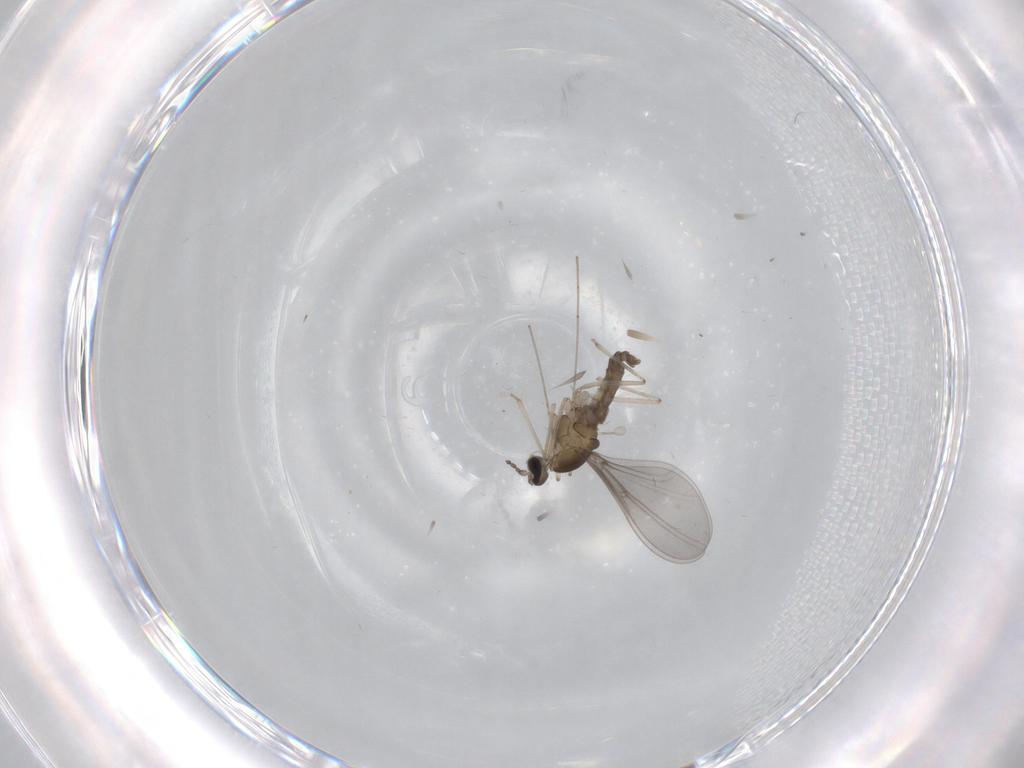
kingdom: Animalia
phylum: Arthropoda
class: Insecta
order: Diptera
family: Cecidomyiidae
